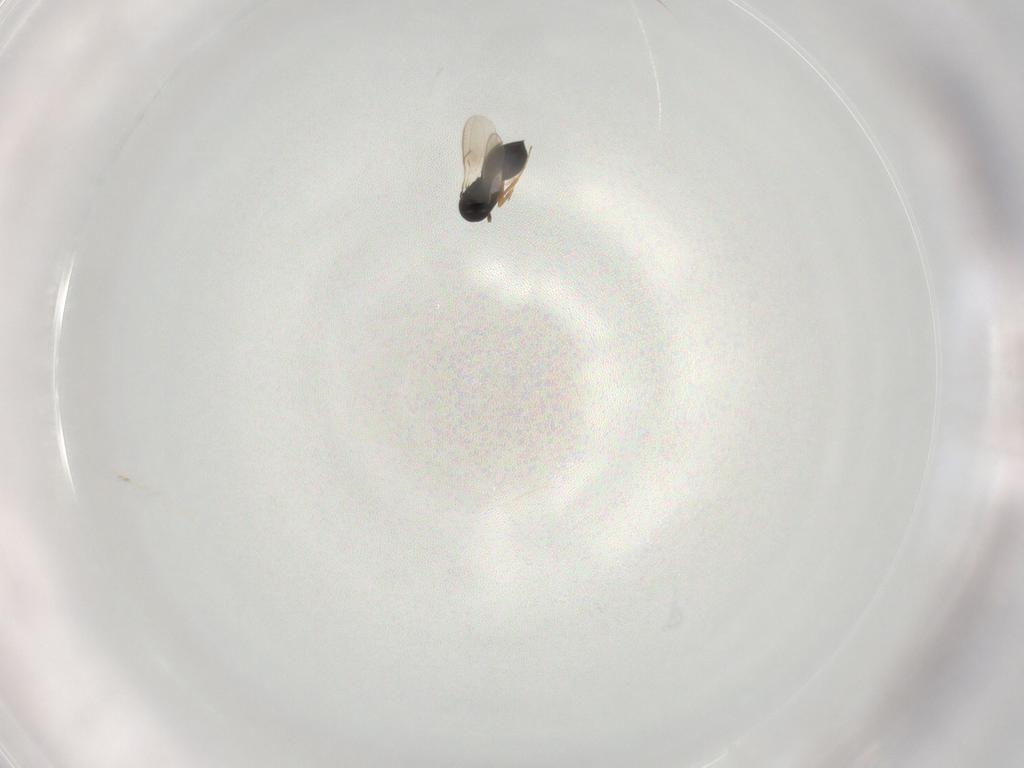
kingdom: Animalia
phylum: Arthropoda
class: Insecta
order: Hymenoptera
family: Scelionidae
